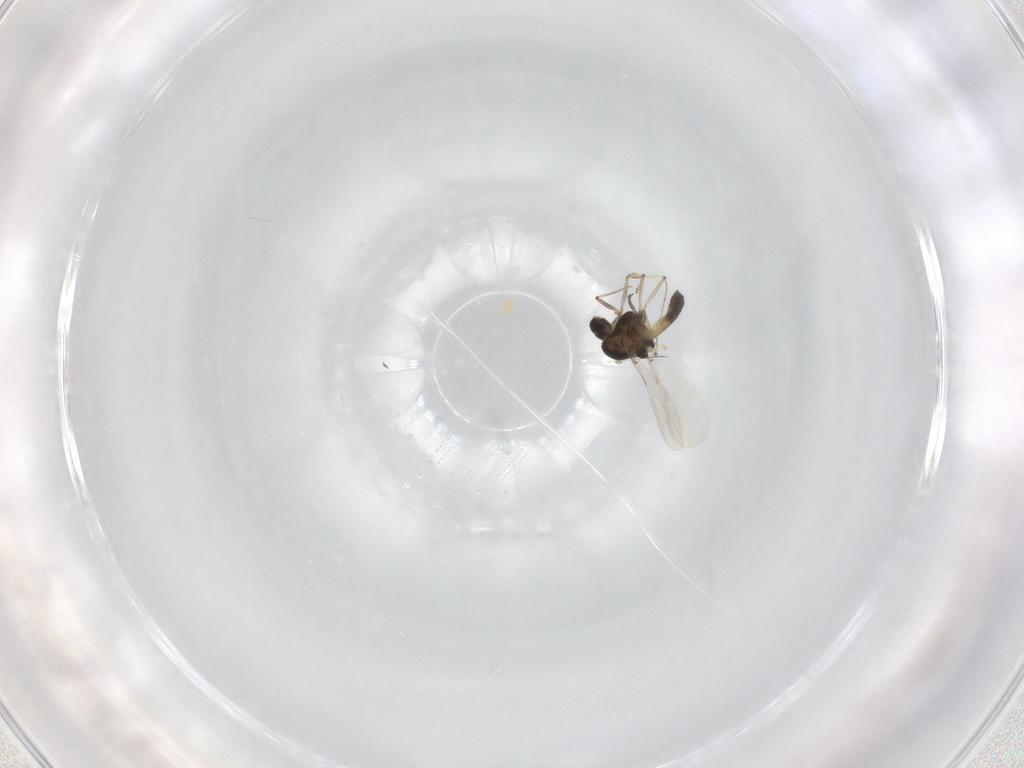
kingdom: Animalia
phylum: Arthropoda
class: Insecta
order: Diptera
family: Chironomidae
